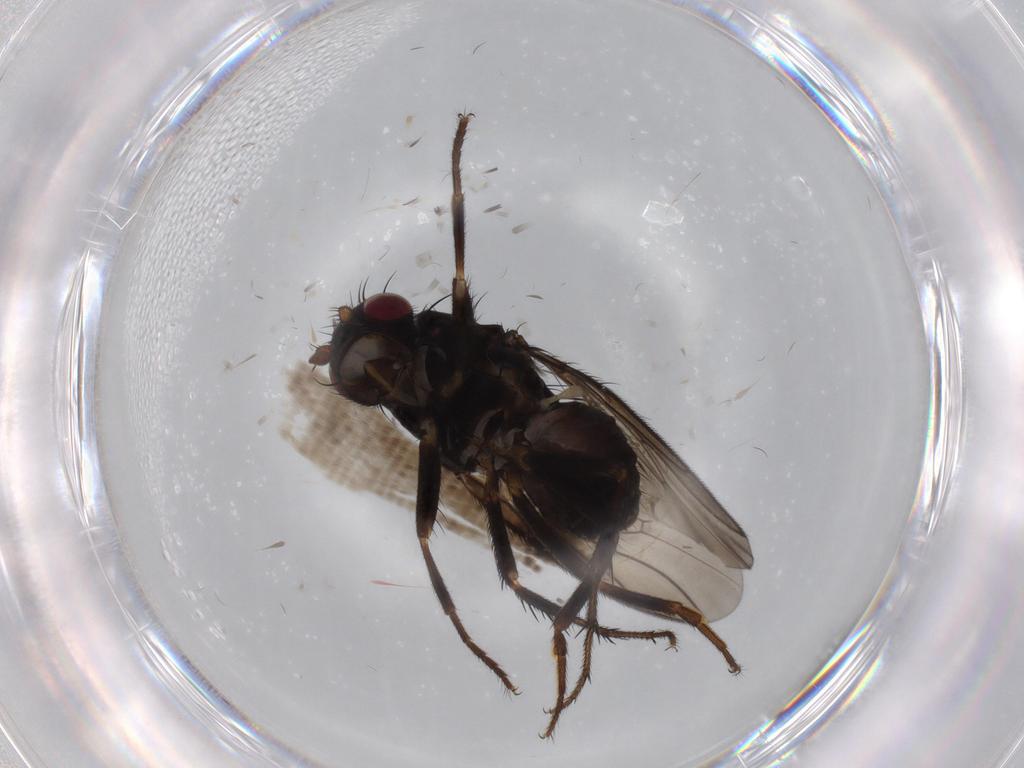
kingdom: Animalia
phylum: Arthropoda
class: Insecta
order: Diptera
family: Sphaeroceridae
